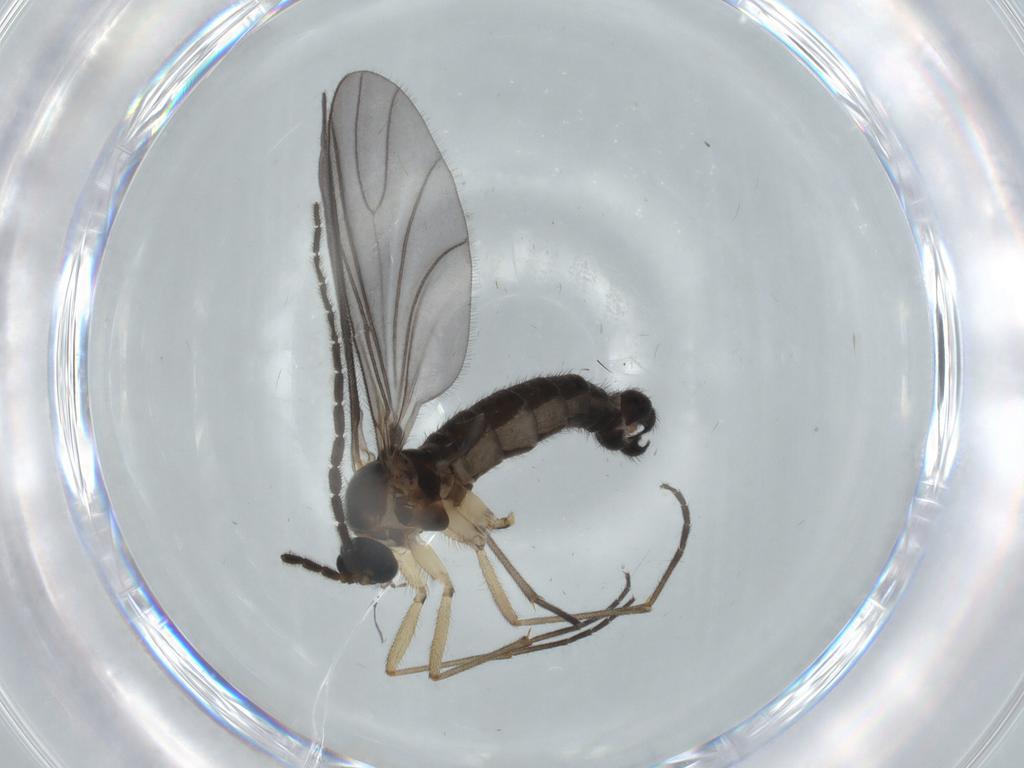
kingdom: Animalia
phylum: Arthropoda
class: Insecta
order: Diptera
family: Sciaridae
